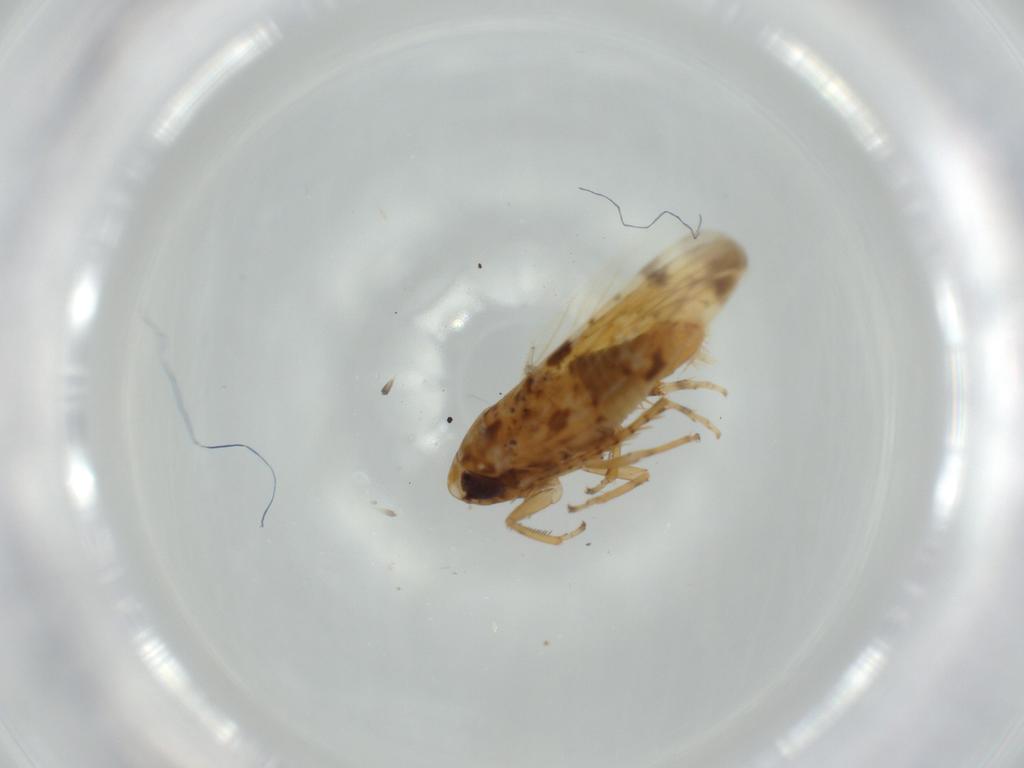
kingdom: Animalia
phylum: Arthropoda
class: Insecta
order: Hemiptera
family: Cicadellidae
